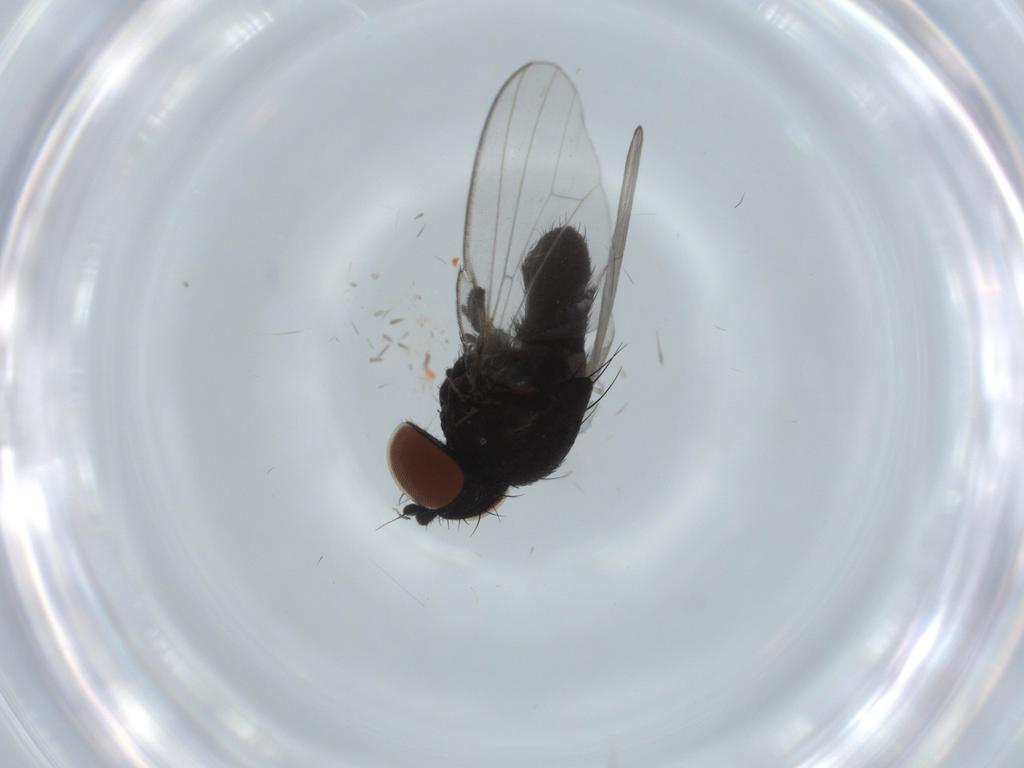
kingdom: Animalia
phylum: Arthropoda
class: Insecta
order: Diptera
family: Milichiidae
